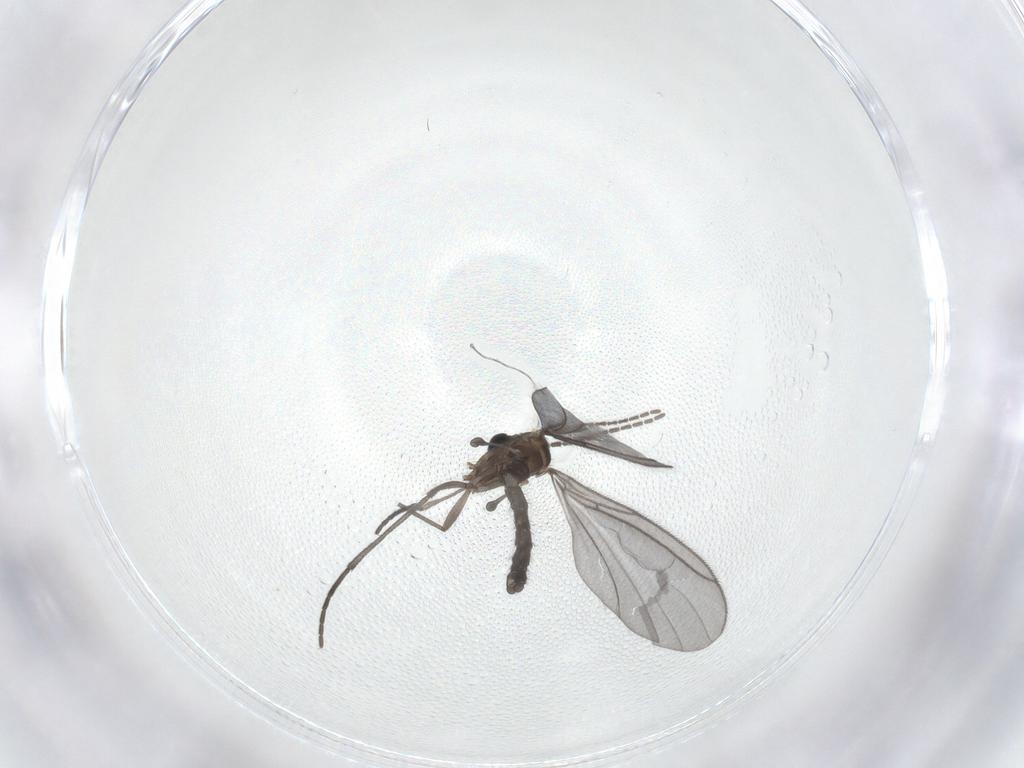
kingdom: Animalia
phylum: Arthropoda
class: Insecta
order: Diptera
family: Sciaridae
